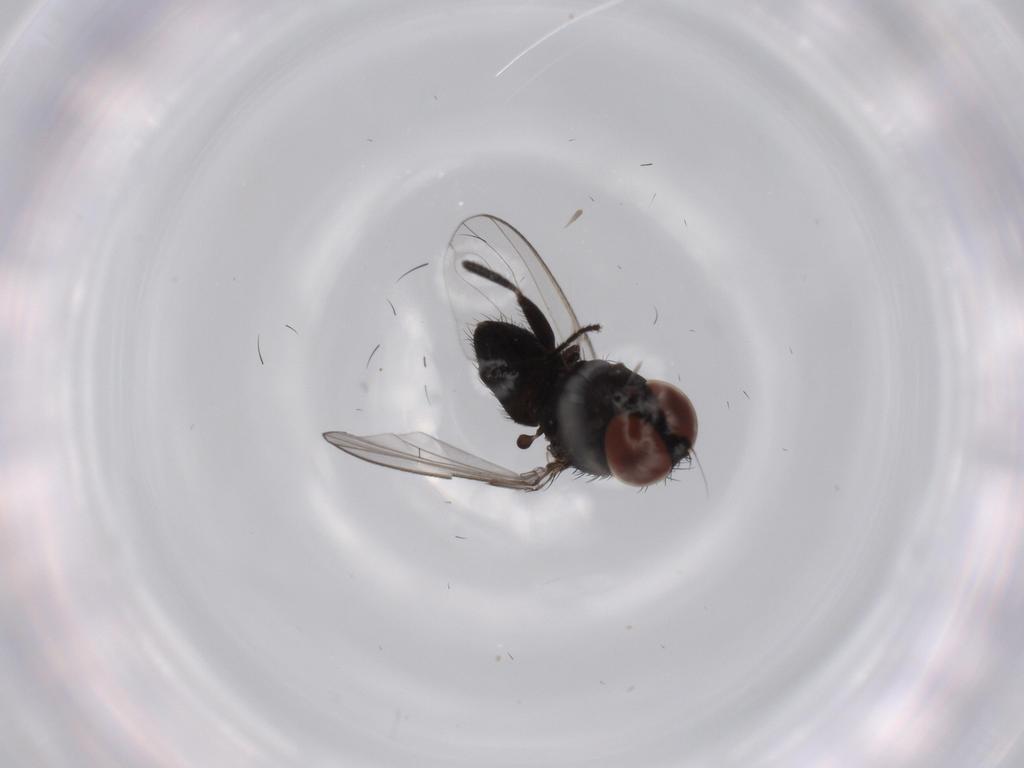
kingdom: Animalia
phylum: Arthropoda
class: Insecta
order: Diptera
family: Milichiidae
